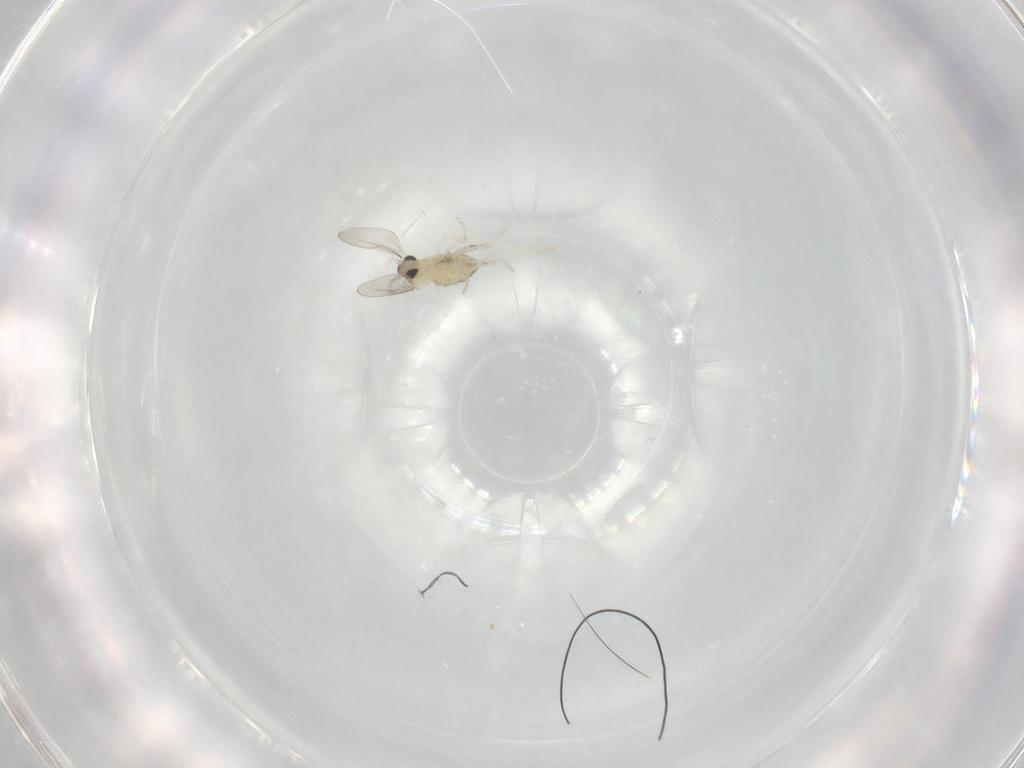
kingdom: Animalia
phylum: Arthropoda
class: Insecta
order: Diptera
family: Cecidomyiidae
